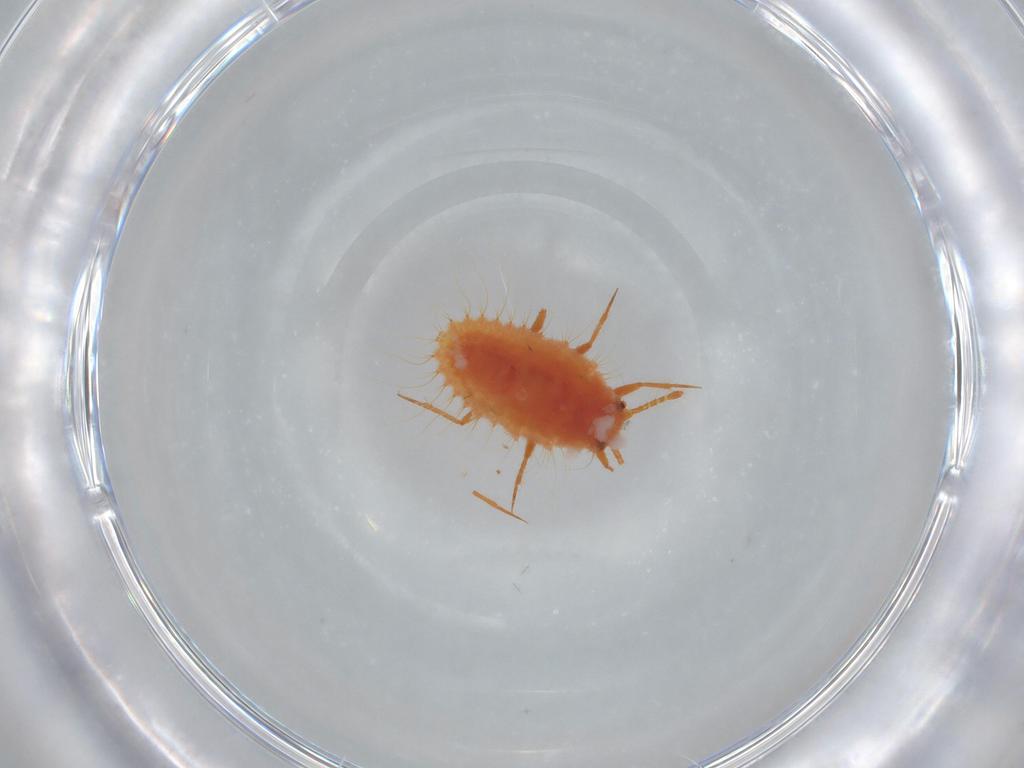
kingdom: Animalia
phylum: Arthropoda
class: Insecta
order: Hemiptera
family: Coccoidea_incertae_sedis
